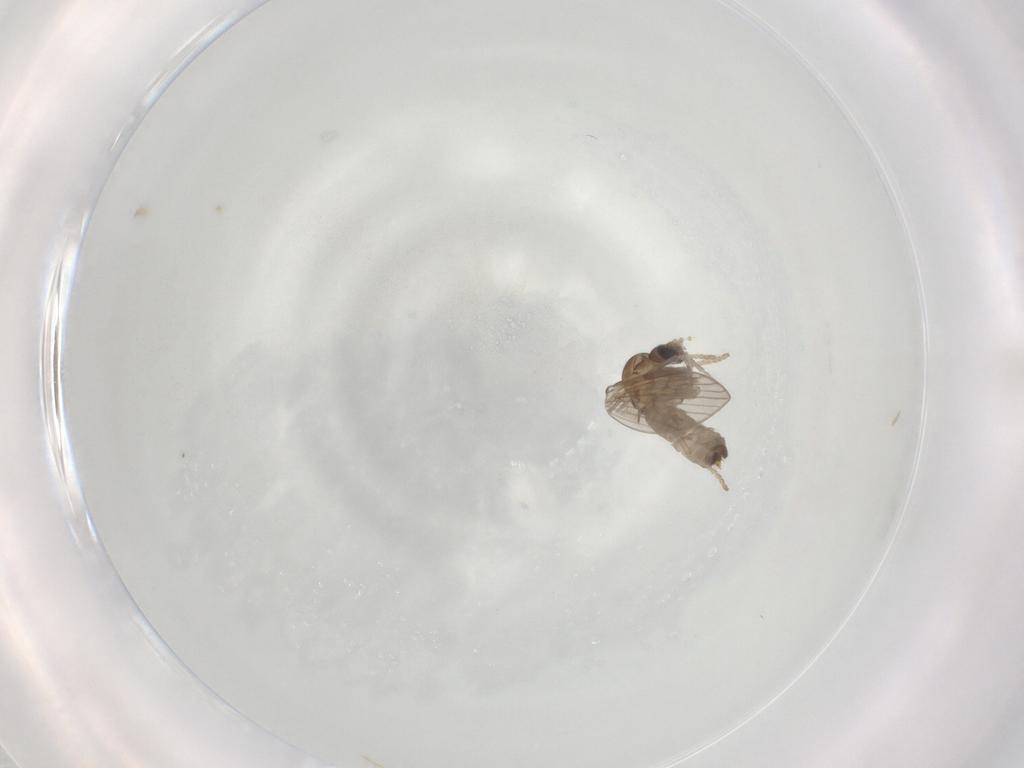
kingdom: Animalia
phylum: Arthropoda
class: Insecta
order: Diptera
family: Psychodidae
